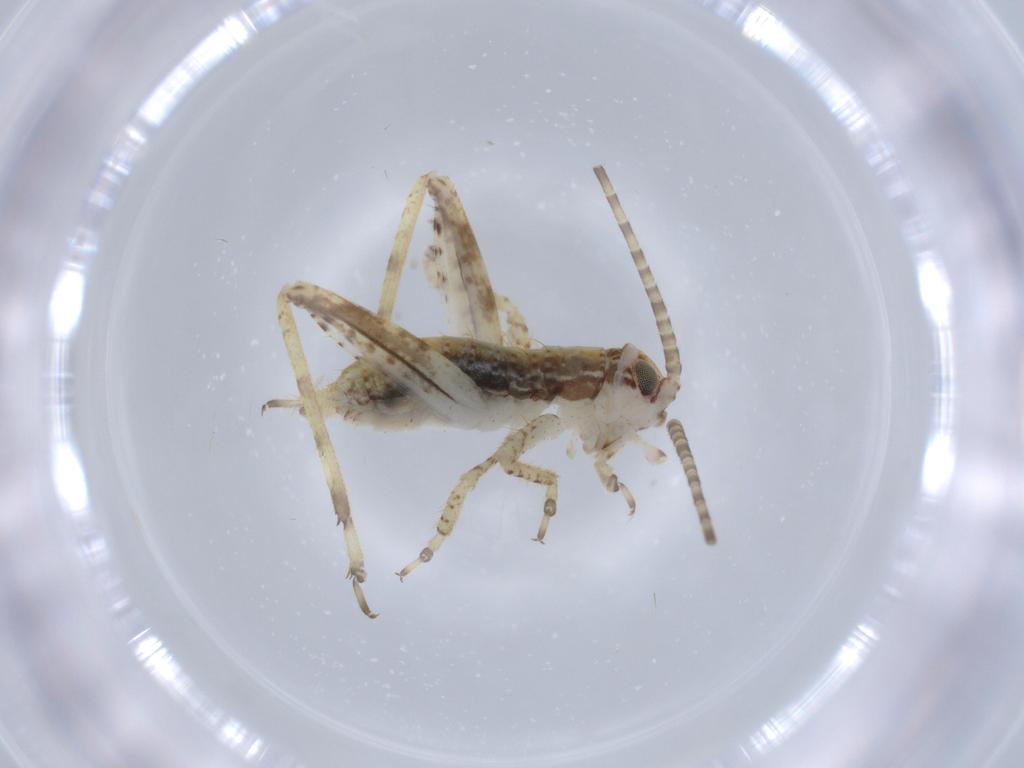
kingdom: Animalia
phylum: Arthropoda
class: Insecta
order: Orthoptera
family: Gryllidae
